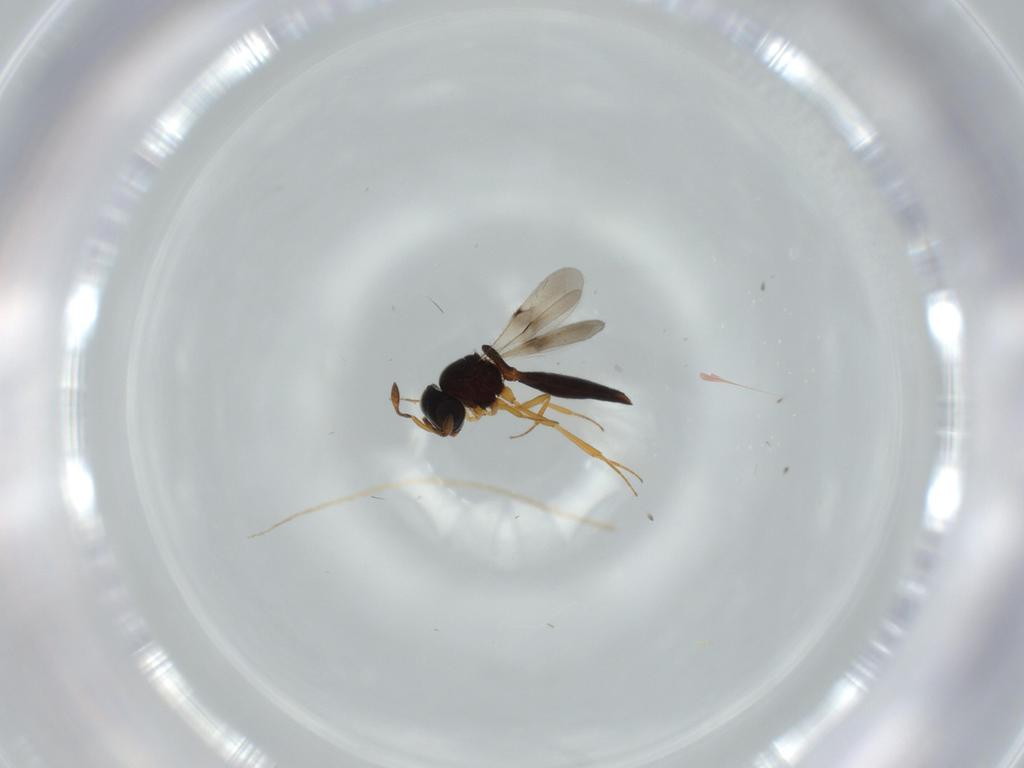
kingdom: Animalia
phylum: Arthropoda
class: Insecta
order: Hymenoptera
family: Scelionidae
